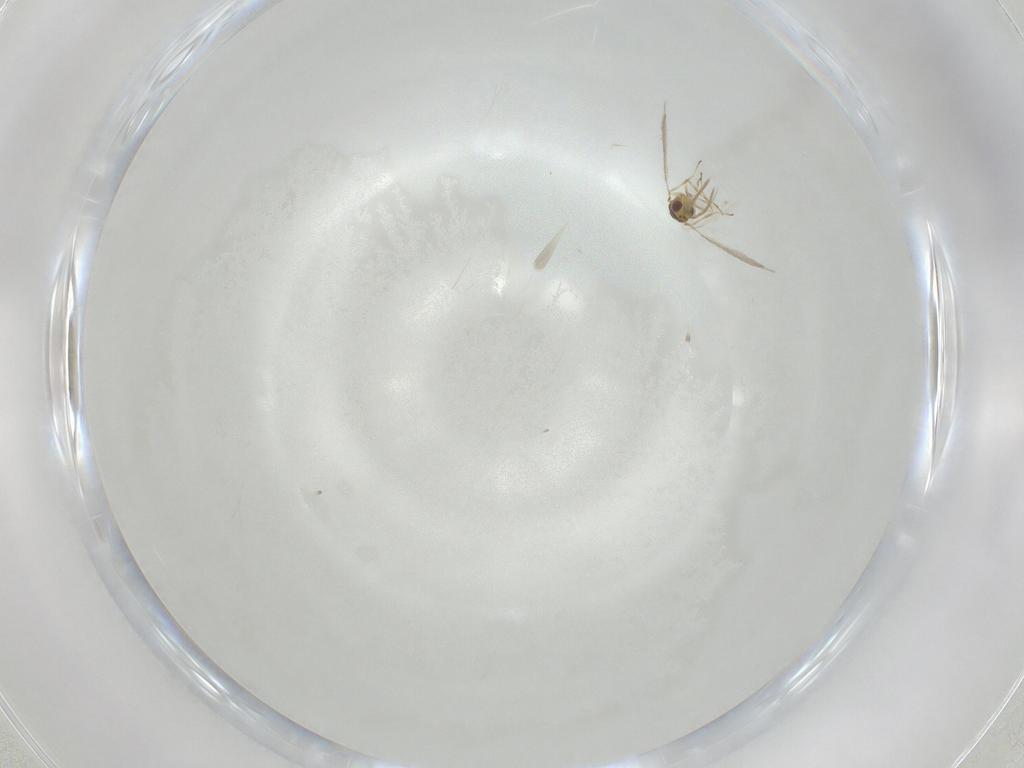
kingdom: Animalia
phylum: Arthropoda
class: Insecta
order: Hymenoptera
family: Eulophidae
